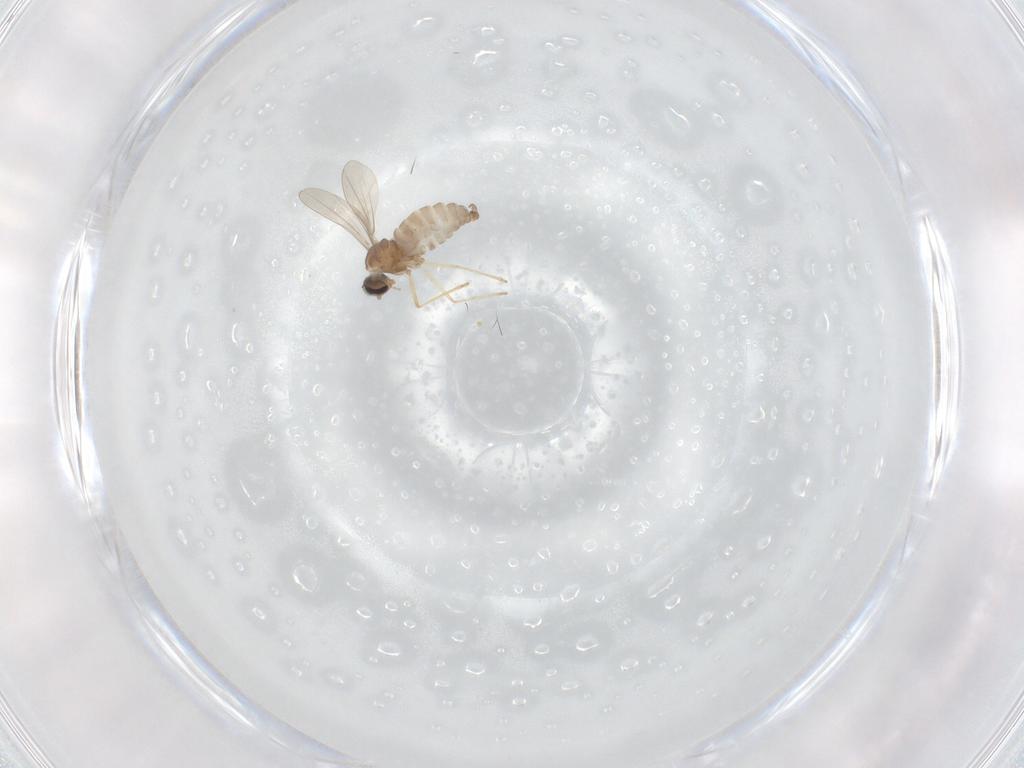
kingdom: Animalia
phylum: Arthropoda
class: Insecta
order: Diptera
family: Cecidomyiidae
